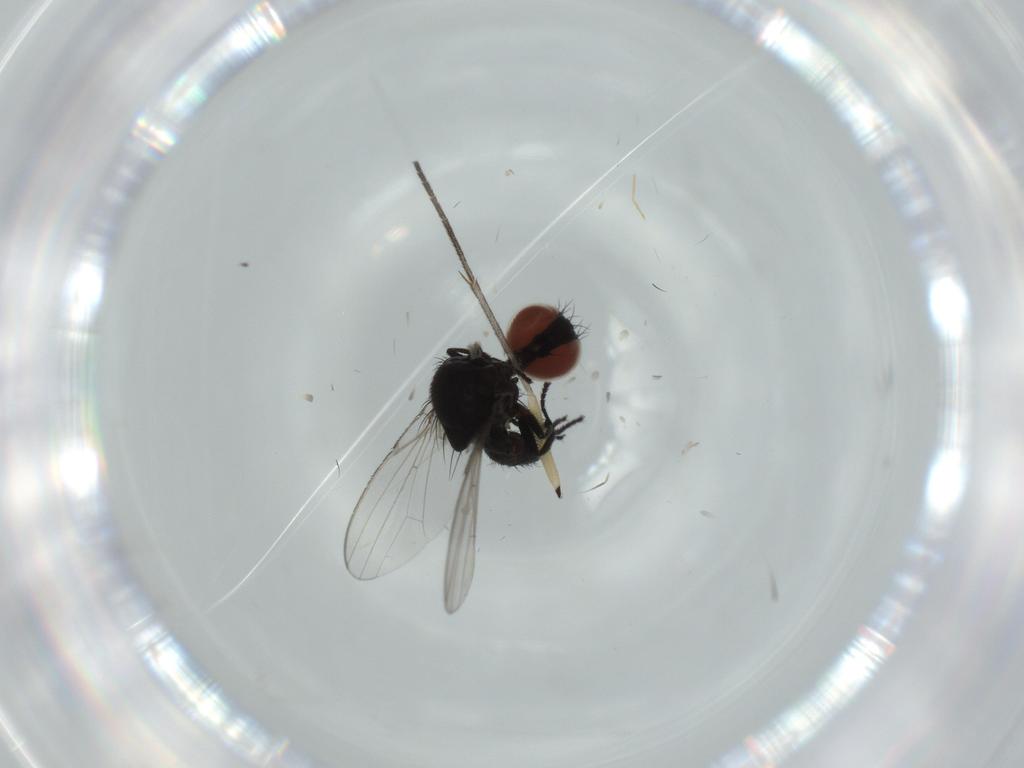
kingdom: Animalia
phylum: Arthropoda
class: Insecta
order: Diptera
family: Milichiidae
